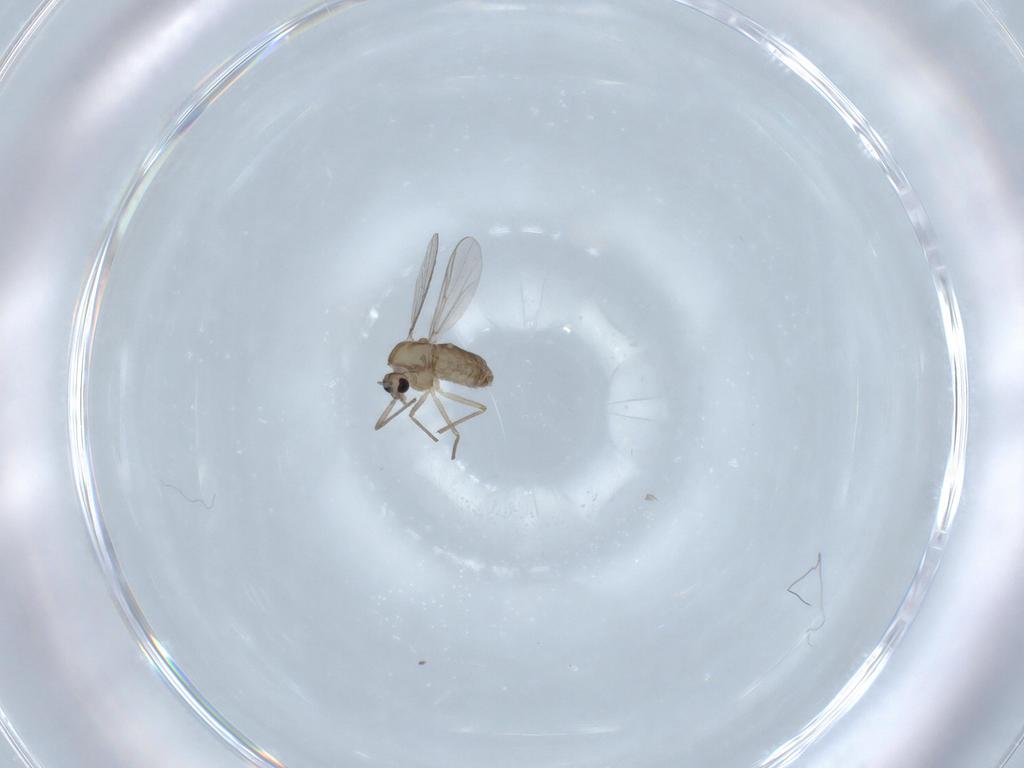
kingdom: Animalia
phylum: Arthropoda
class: Insecta
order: Diptera
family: Chironomidae
